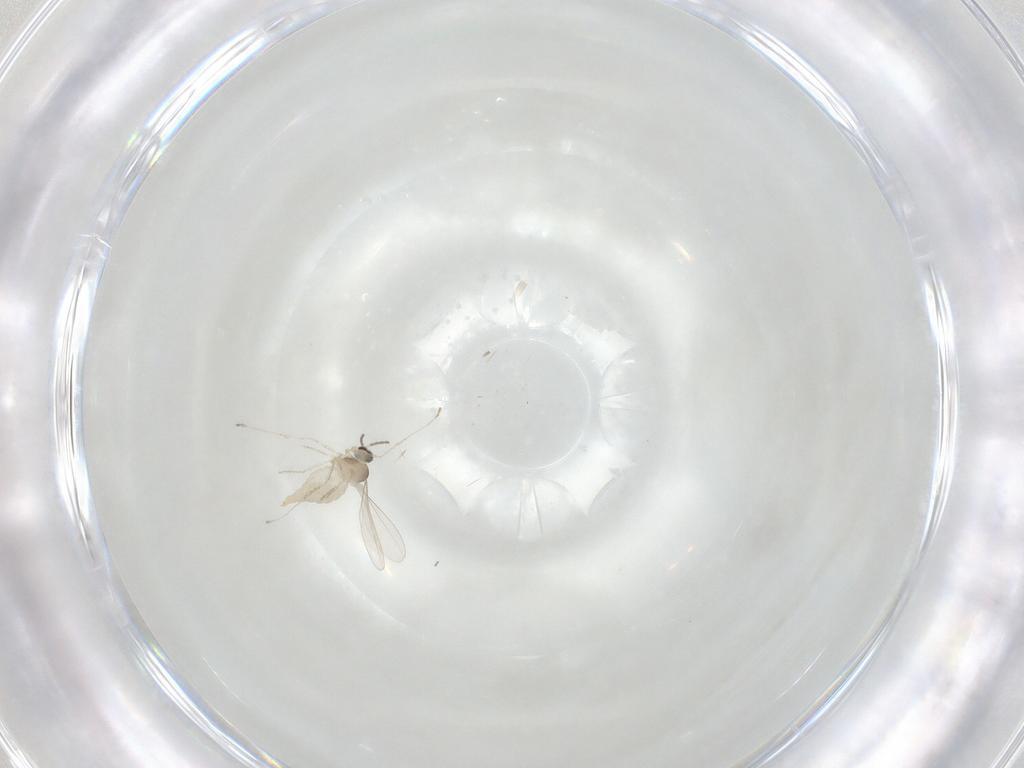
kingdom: Animalia
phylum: Arthropoda
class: Insecta
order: Diptera
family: Cecidomyiidae
